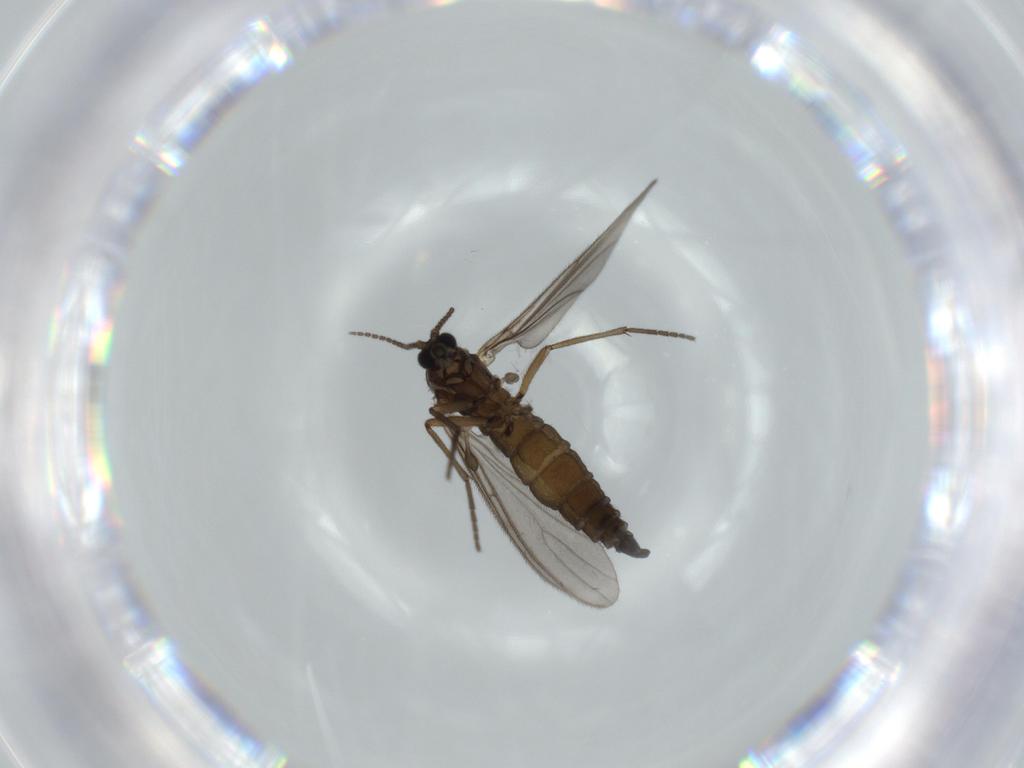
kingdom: Animalia
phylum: Arthropoda
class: Insecta
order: Diptera
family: Sciaridae
